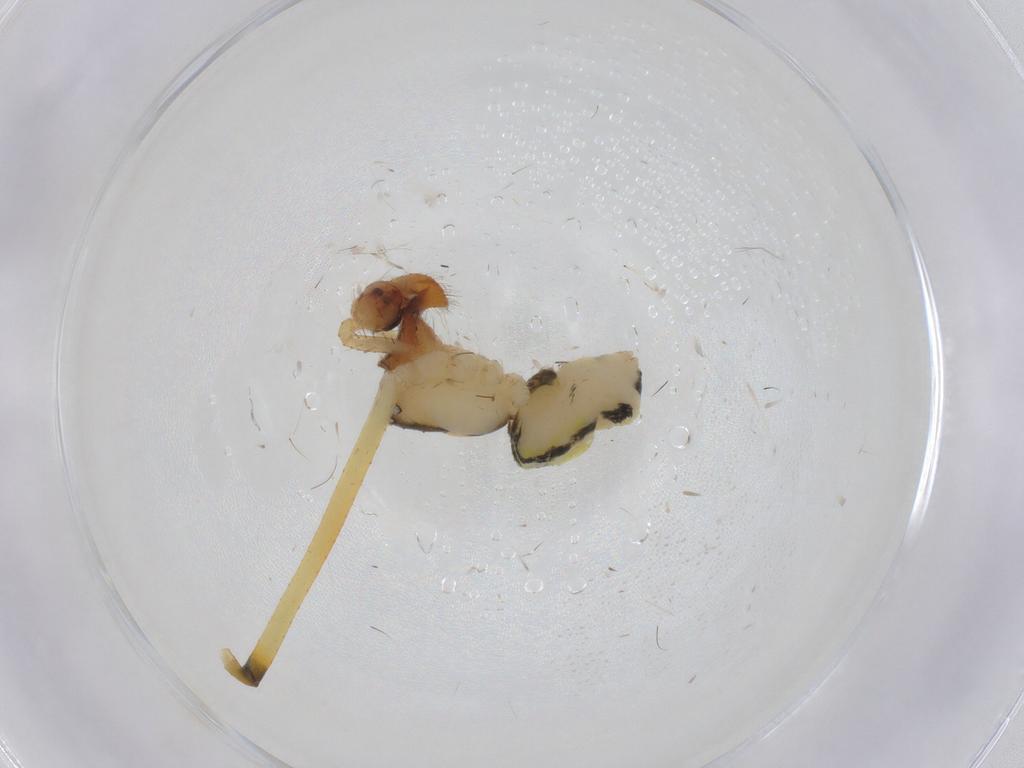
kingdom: Animalia
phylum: Arthropoda
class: Arachnida
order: Araneae
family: Theridiidae
